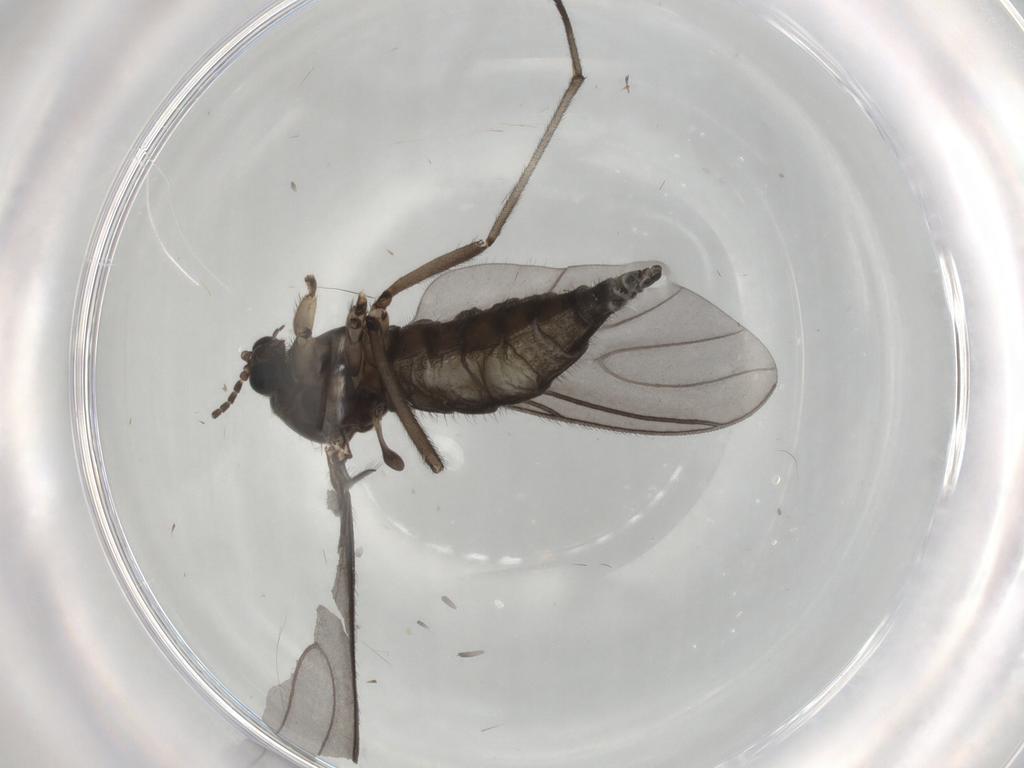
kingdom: Animalia
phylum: Arthropoda
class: Insecta
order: Diptera
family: Sciaridae
